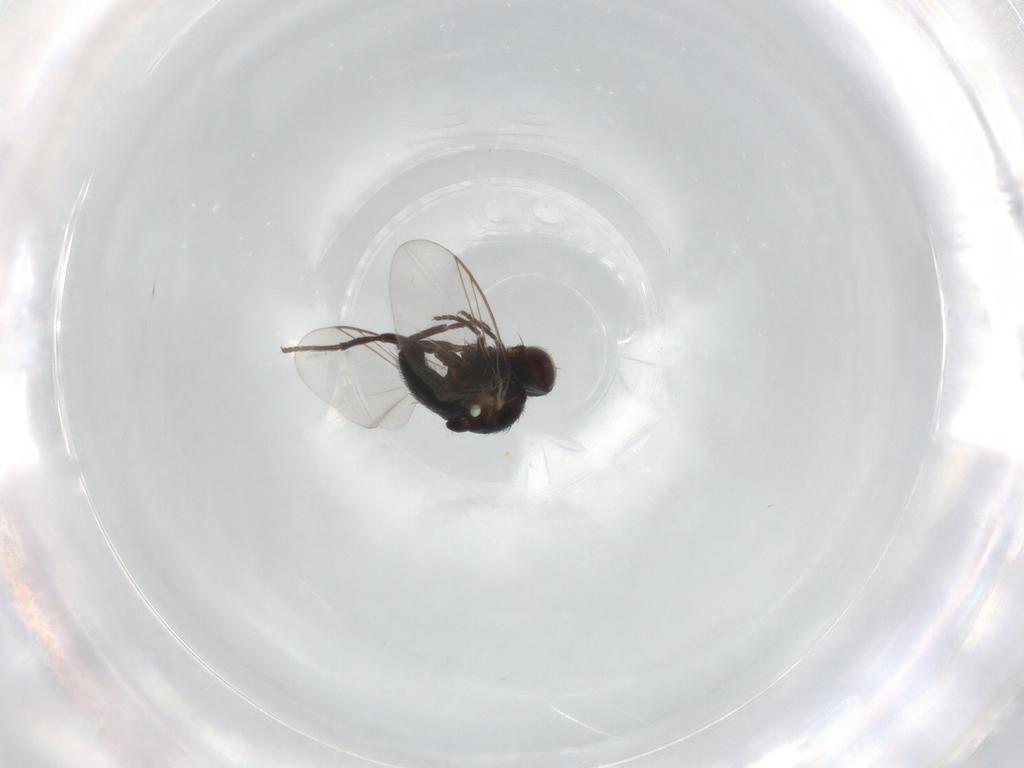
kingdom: Animalia
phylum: Arthropoda
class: Insecta
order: Diptera
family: Agromyzidae
